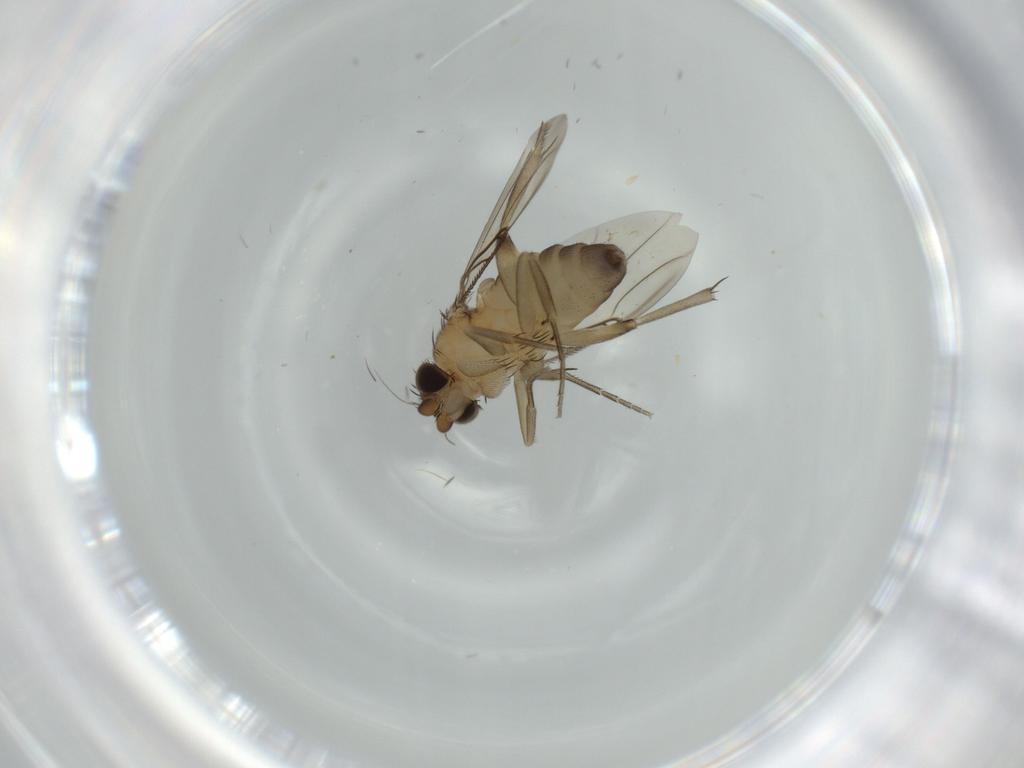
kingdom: Animalia
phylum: Arthropoda
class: Insecta
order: Diptera
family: Phoridae
